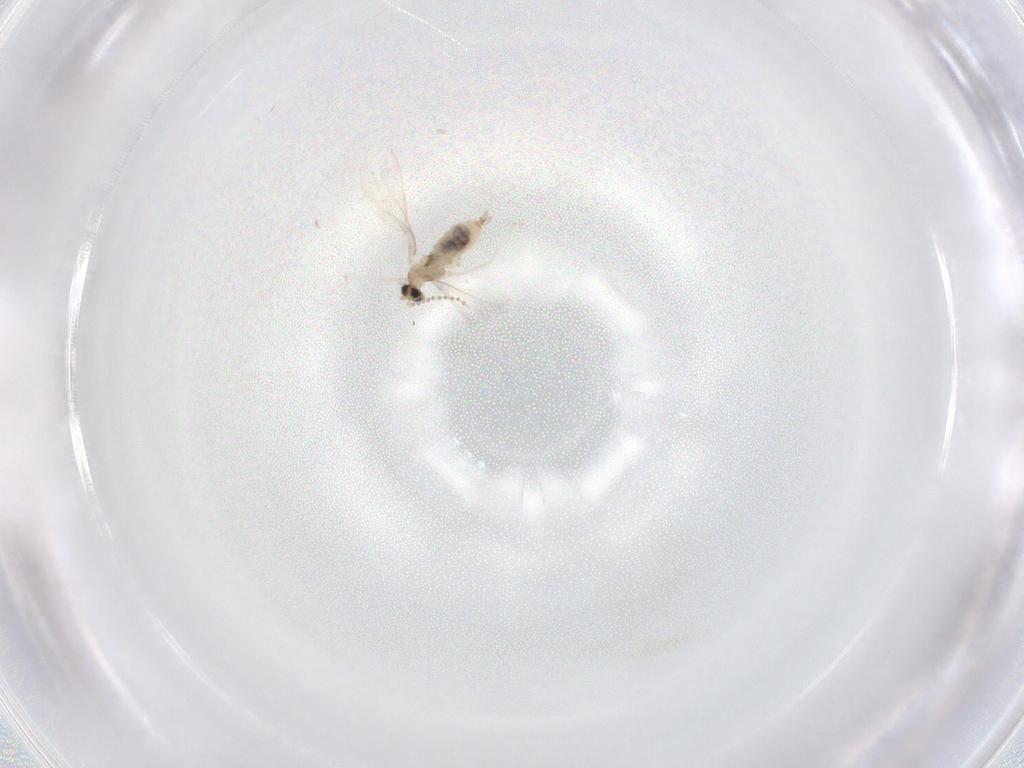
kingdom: Animalia
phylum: Arthropoda
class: Insecta
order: Diptera
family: Cecidomyiidae
